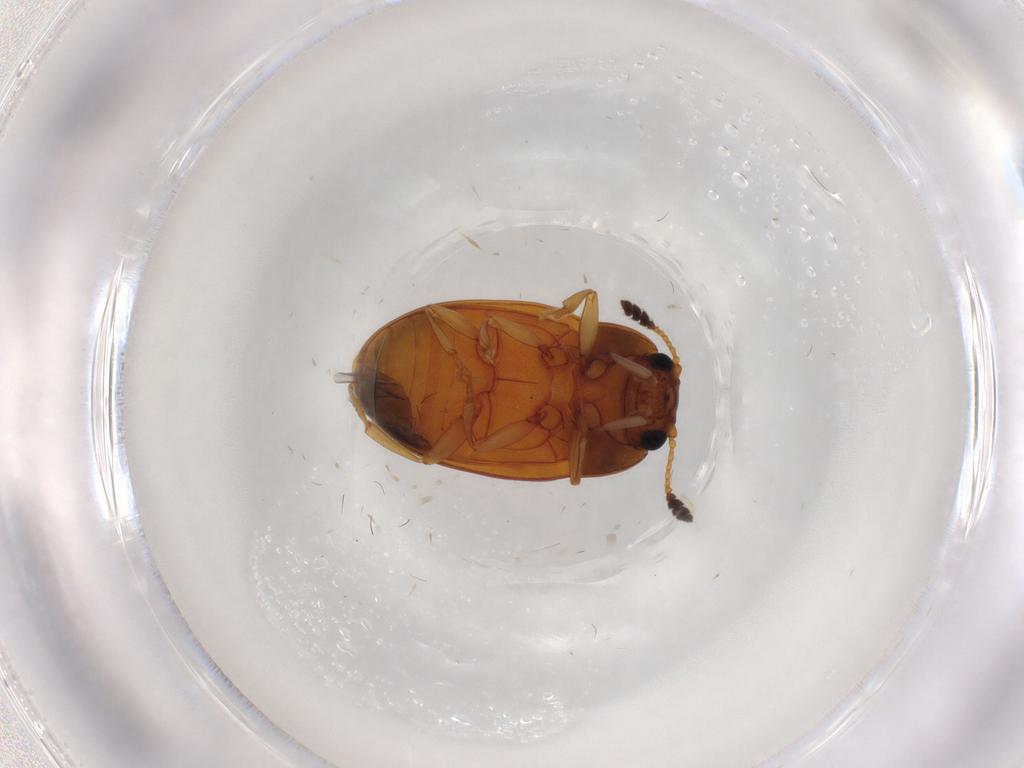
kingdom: Animalia
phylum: Arthropoda
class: Insecta
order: Coleoptera
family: Erotylidae
